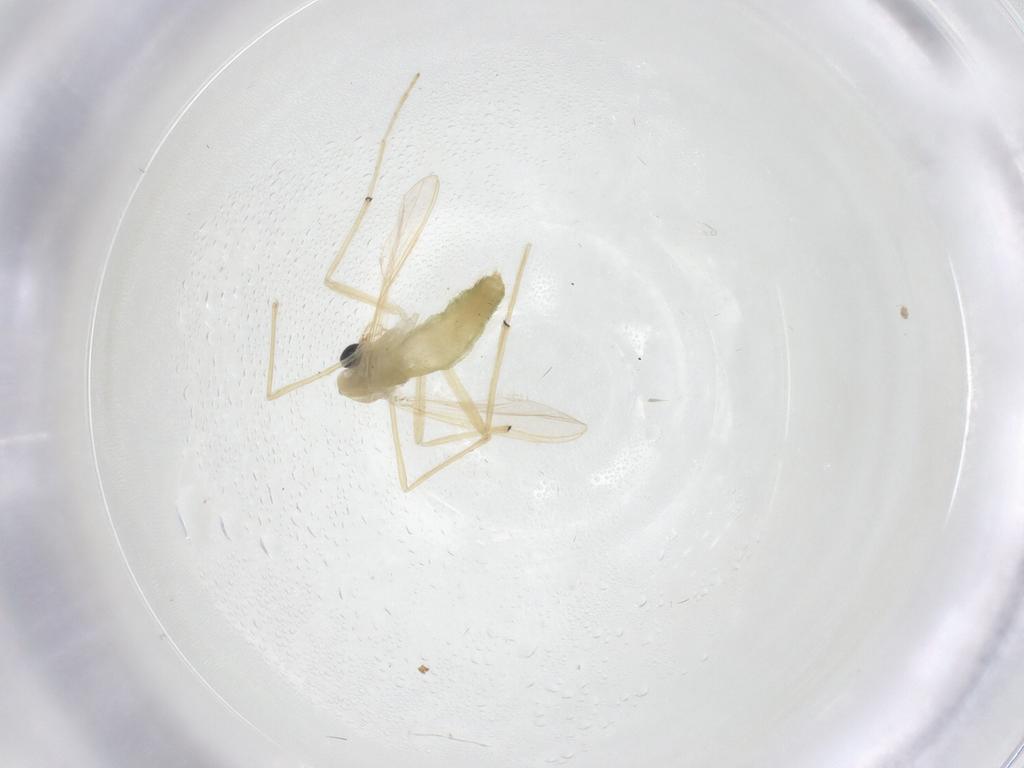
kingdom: Animalia
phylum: Arthropoda
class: Insecta
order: Diptera
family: Chironomidae
